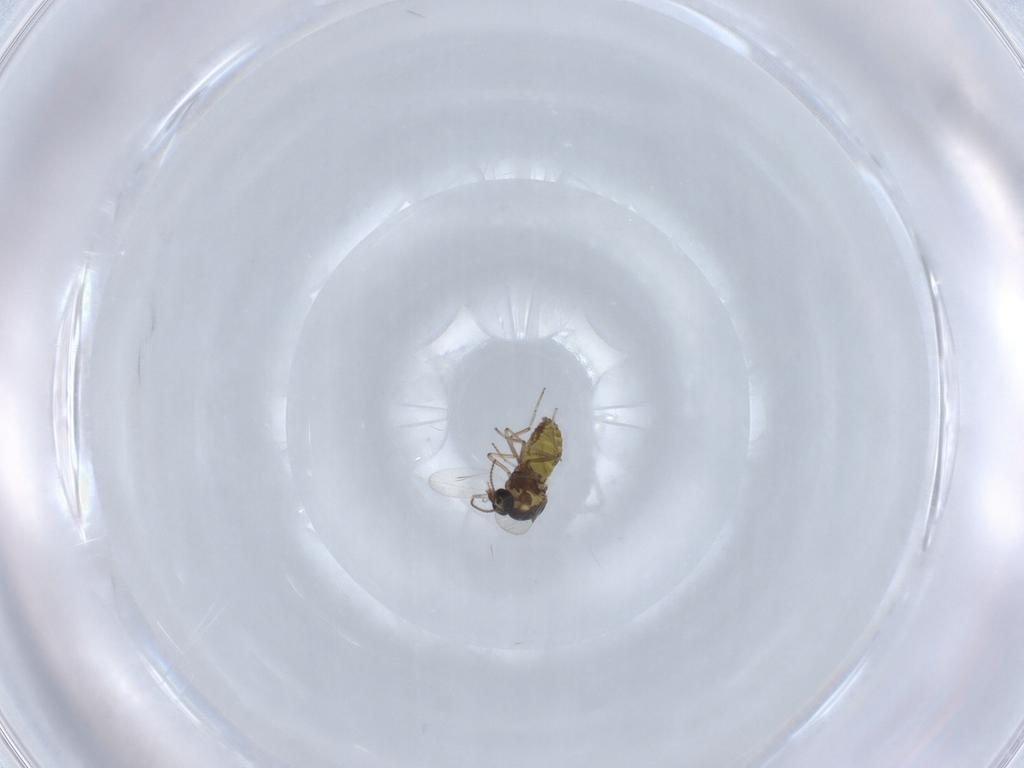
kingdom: Animalia
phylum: Arthropoda
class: Insecta
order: Diptera
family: Ceratopogonidae
